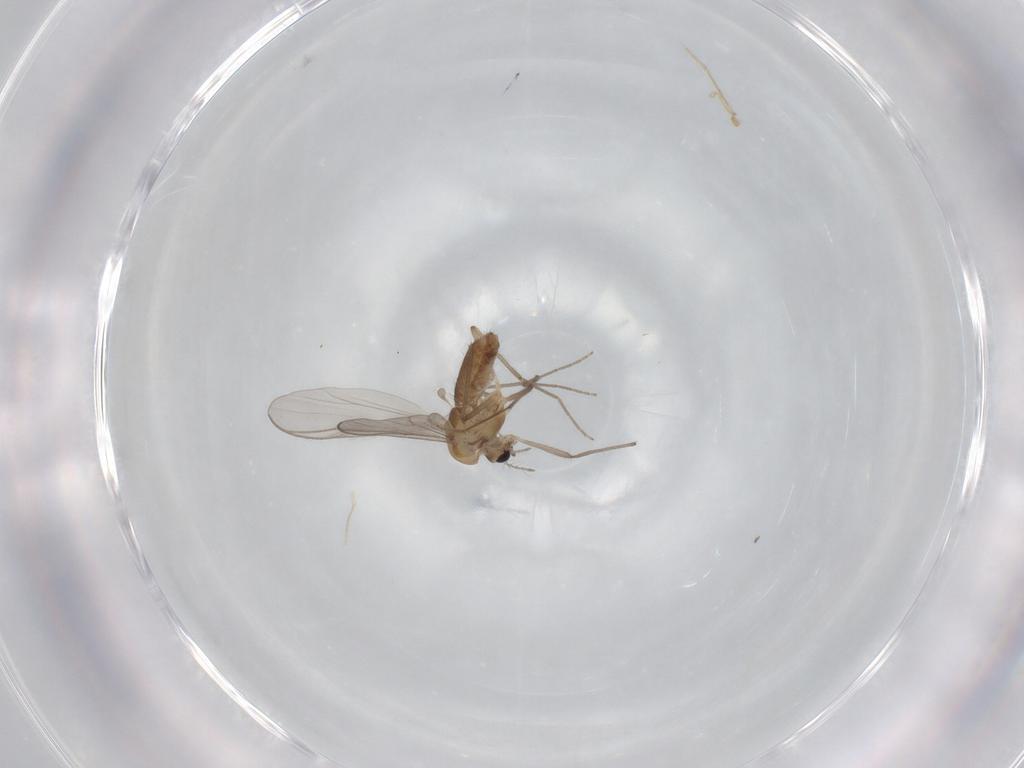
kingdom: Animalia
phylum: Arthropoda
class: Insecta
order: Diptera
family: Chironomidae
